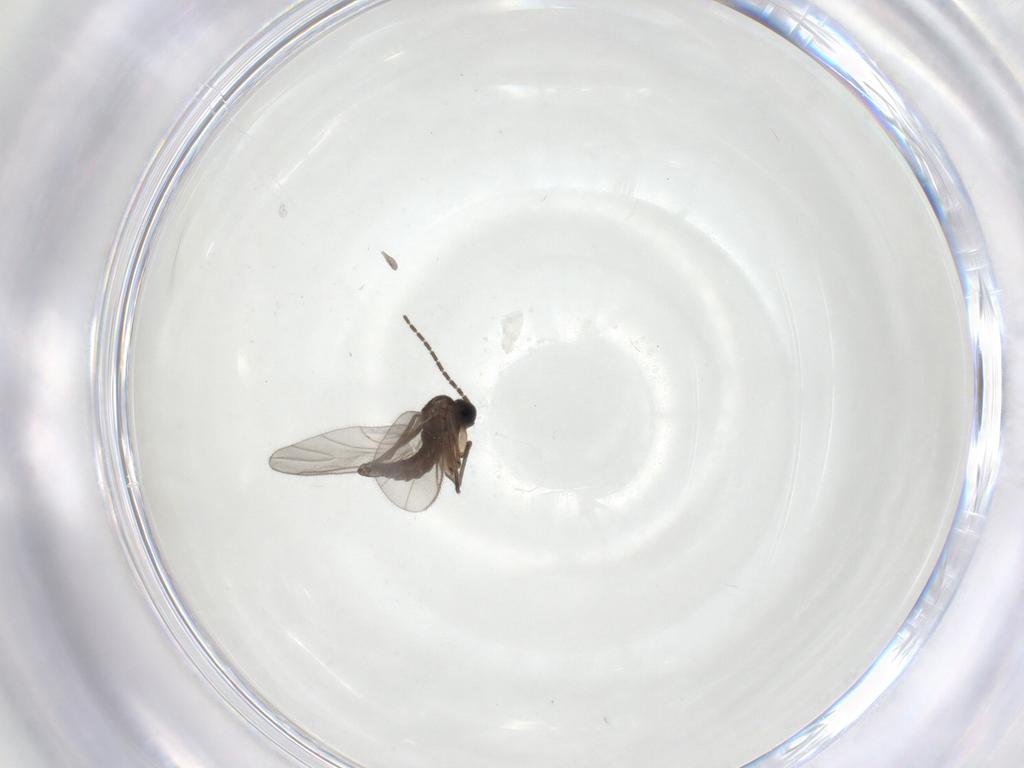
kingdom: Animalia
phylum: Arthropoda
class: Insecta
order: Diptera
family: Sciaridae
